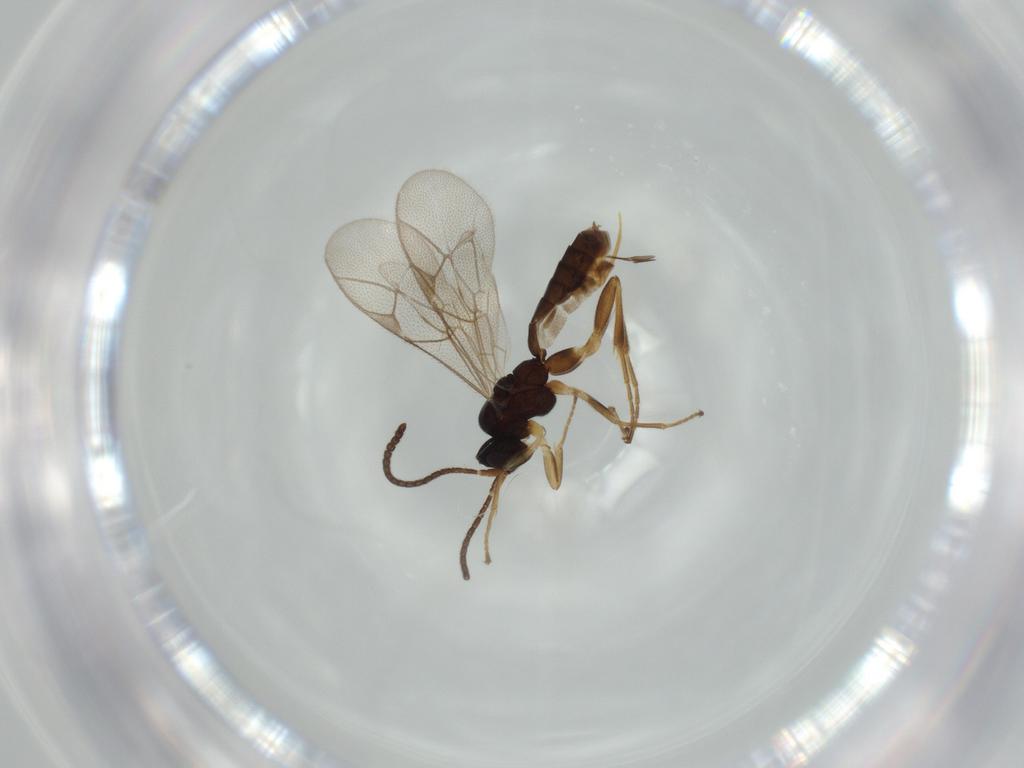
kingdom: Animalia
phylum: Arthropoda
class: Insecta
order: Hymenoptera
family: Ichneumonidae
